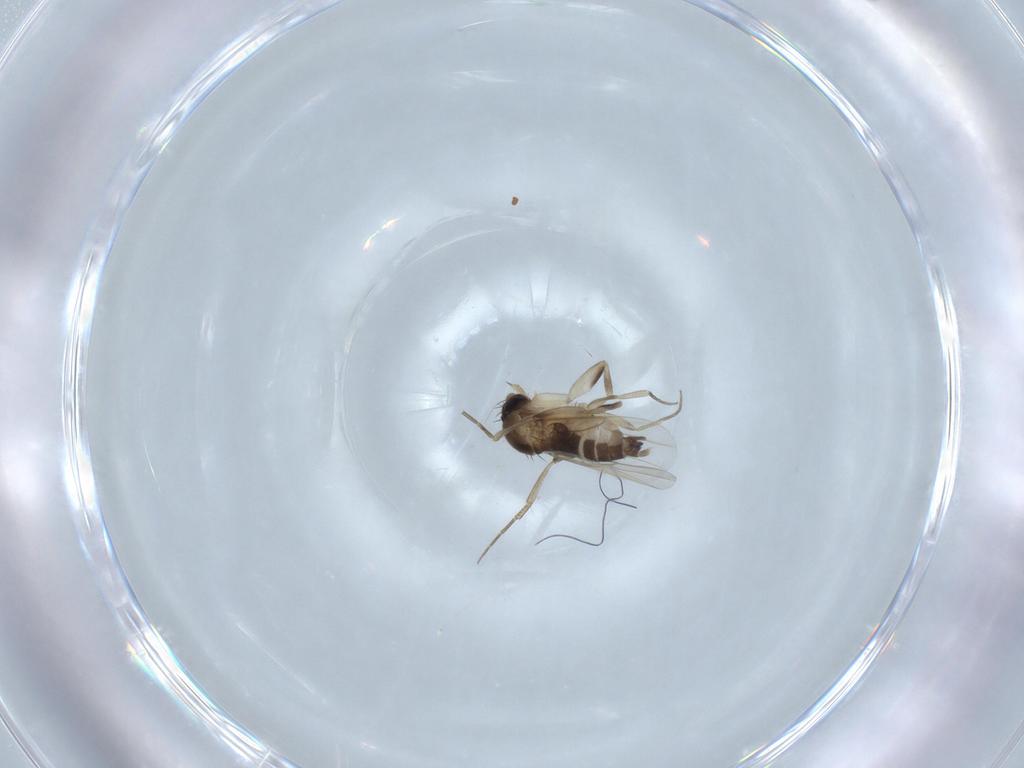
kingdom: Animalia
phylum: Arthropoda
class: Insecta
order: Diptera
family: Phoridae
